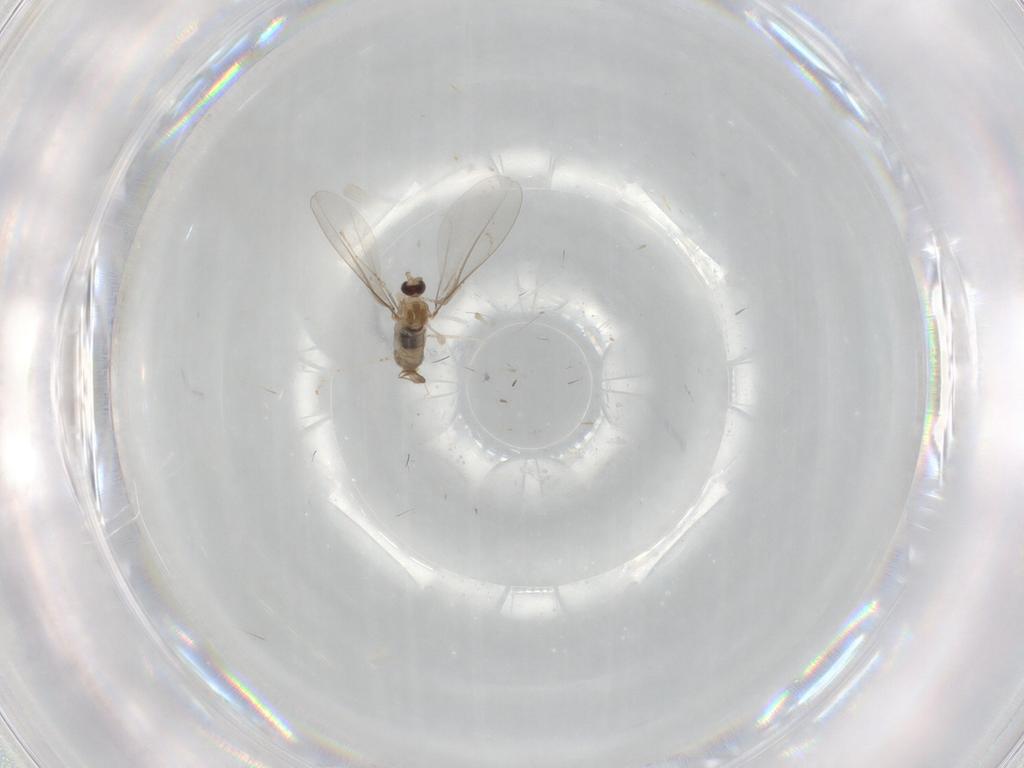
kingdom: Animalia
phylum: Arthropoda
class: Insecta
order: Diptera
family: Cecidomyiidae
